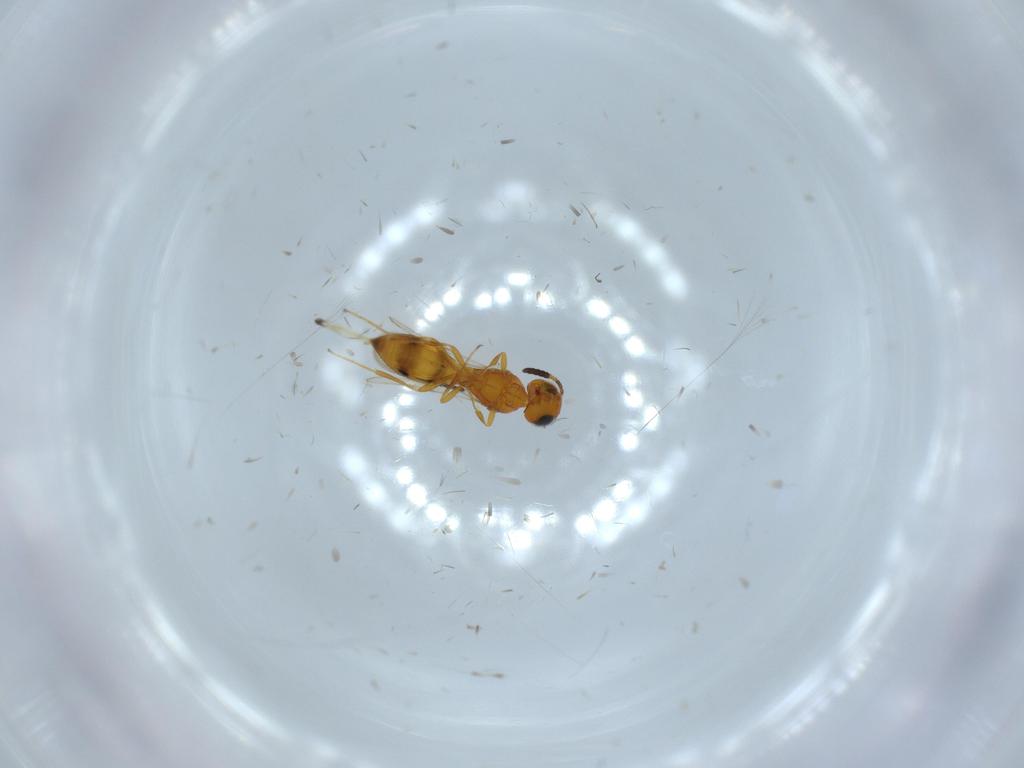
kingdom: Animalia
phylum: Arthropoda
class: Insecta
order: Hymenoptera
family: Scelionidae
